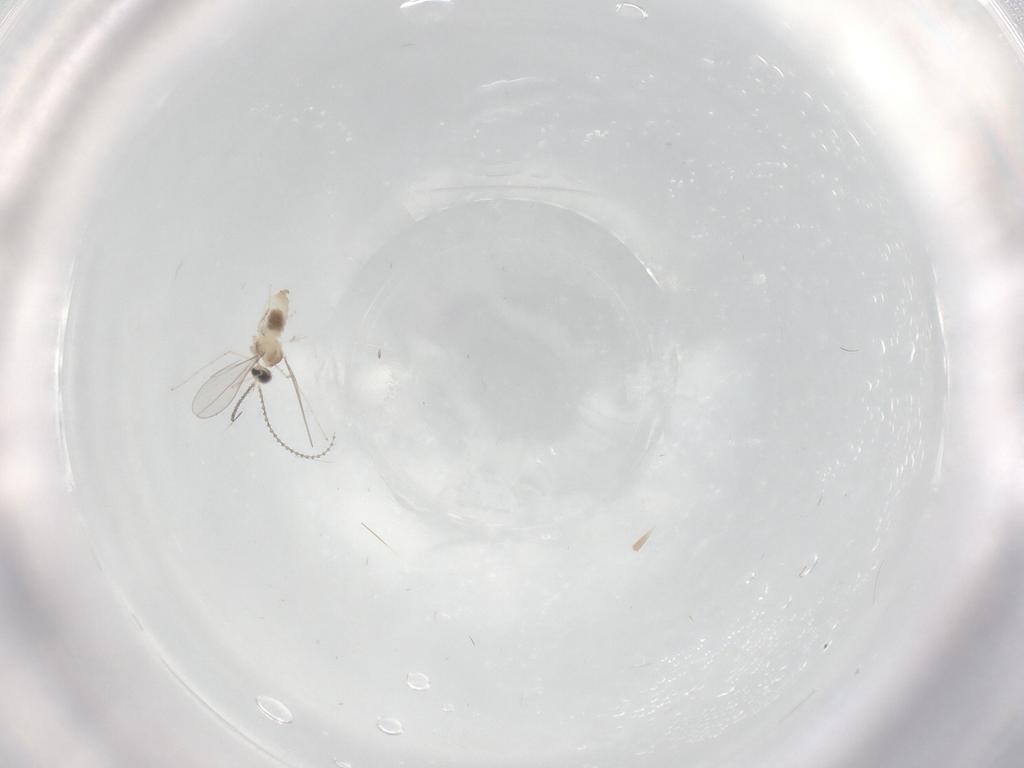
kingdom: Animalia
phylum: Arthropoda
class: Insecta
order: Diptera
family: Cecidomyiidae
